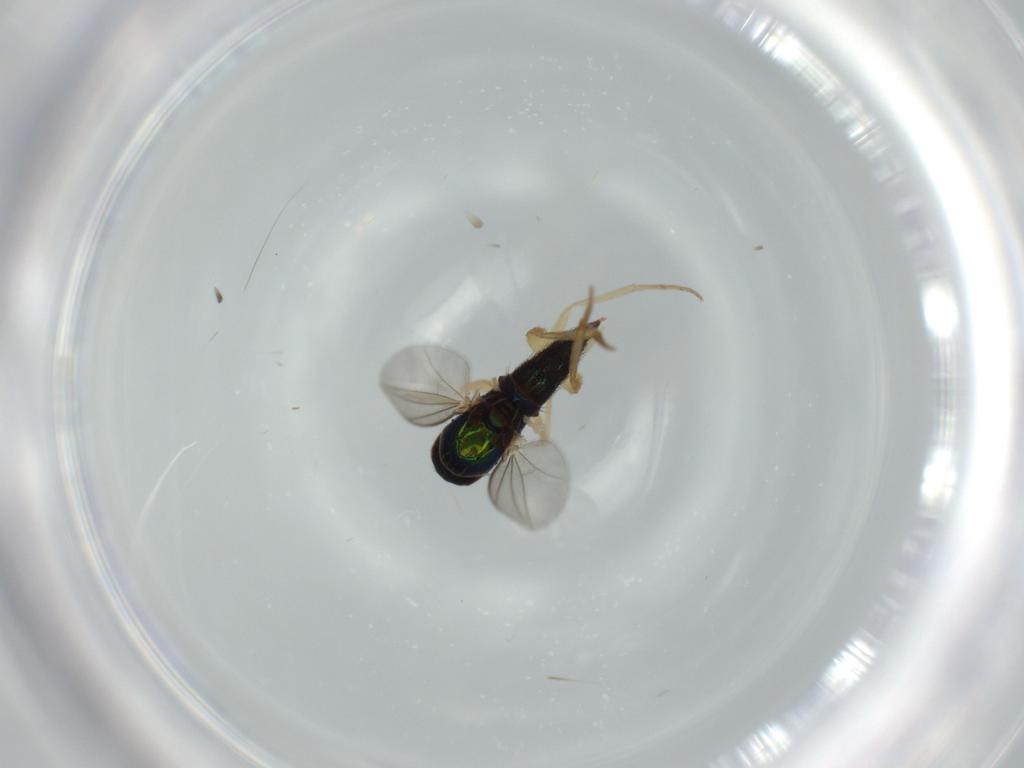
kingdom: Animalia
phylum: Arthropoda
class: Insecta
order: Diptera
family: Dolichopodidae
